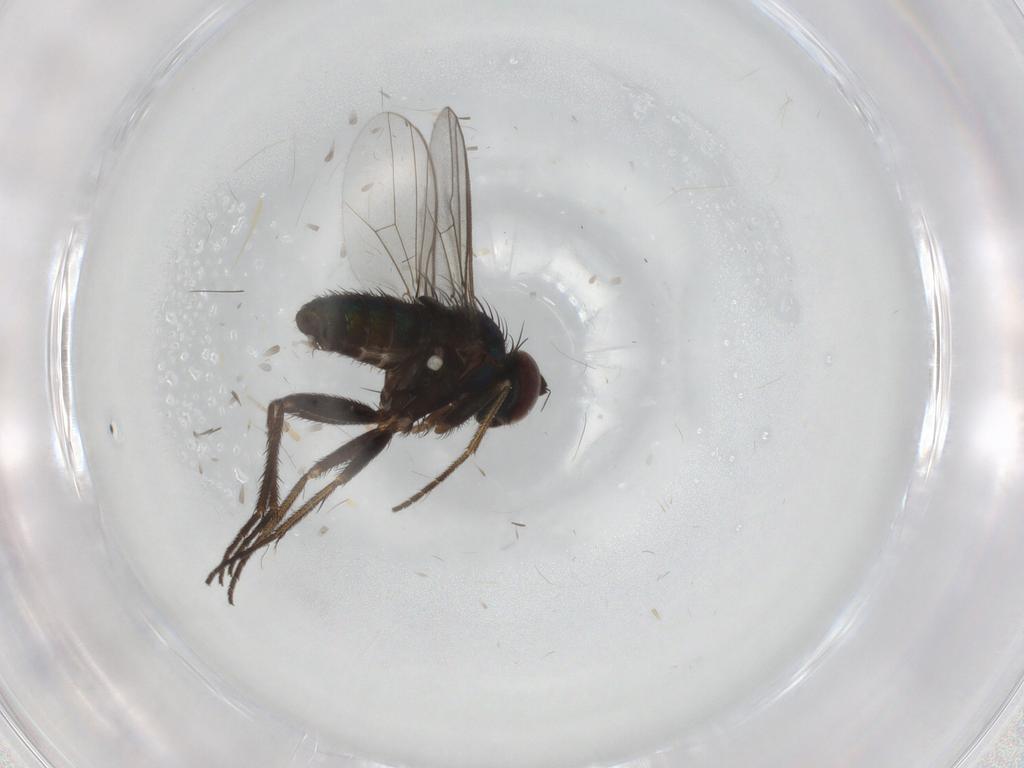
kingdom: Animalia
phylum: Arthropoda
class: Insecta
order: Diptera
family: Dolichopodidae
